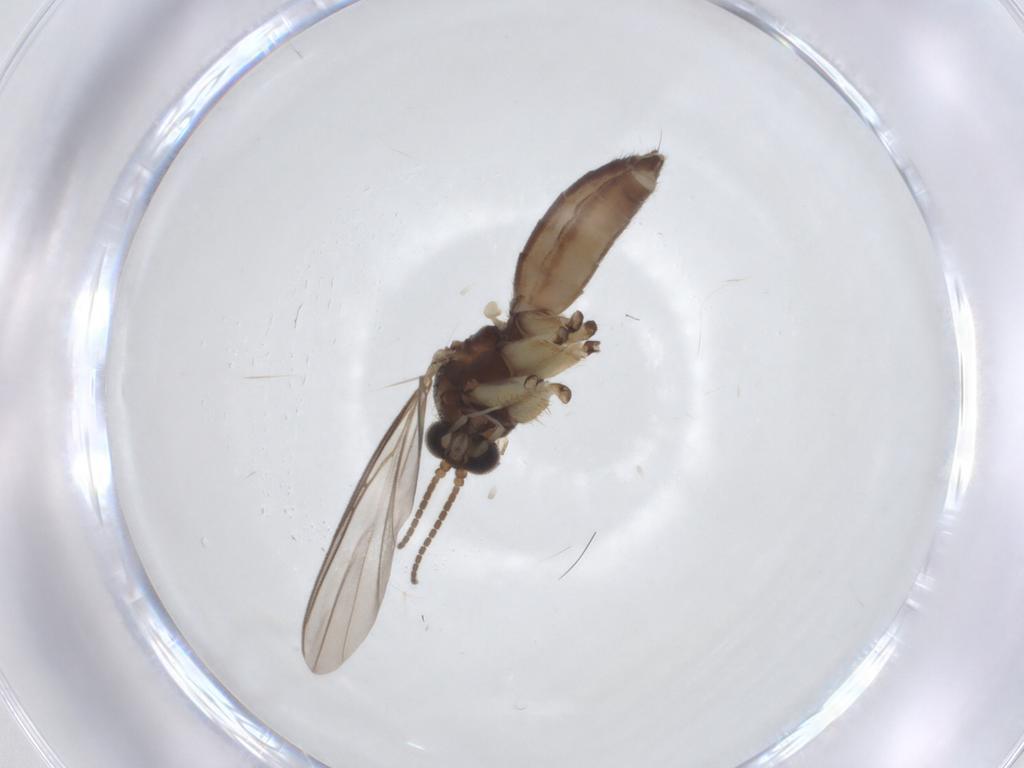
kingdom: Animalia
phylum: Arthropoda
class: Insecta
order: Diptera
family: Mycetophilidae
